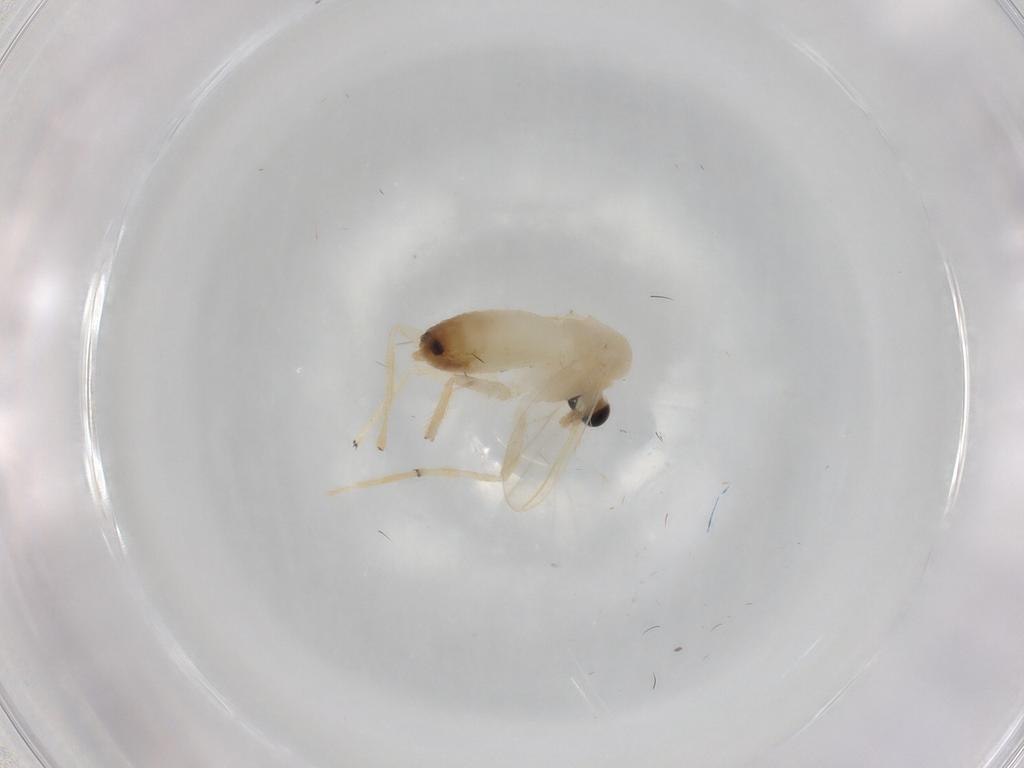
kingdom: Animalia
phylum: Arthropoda
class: Insecta
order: Diptera
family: Chironomidae
